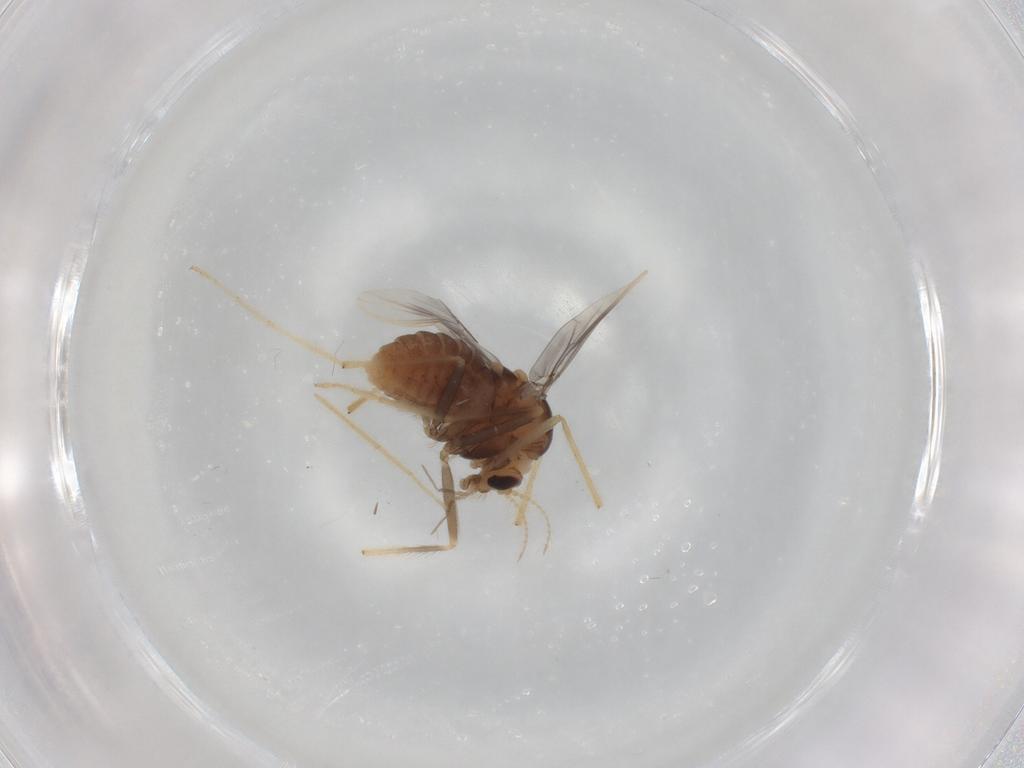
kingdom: Animalia
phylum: Arthropoda
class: Insecta
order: Diptera
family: Chironomidae
